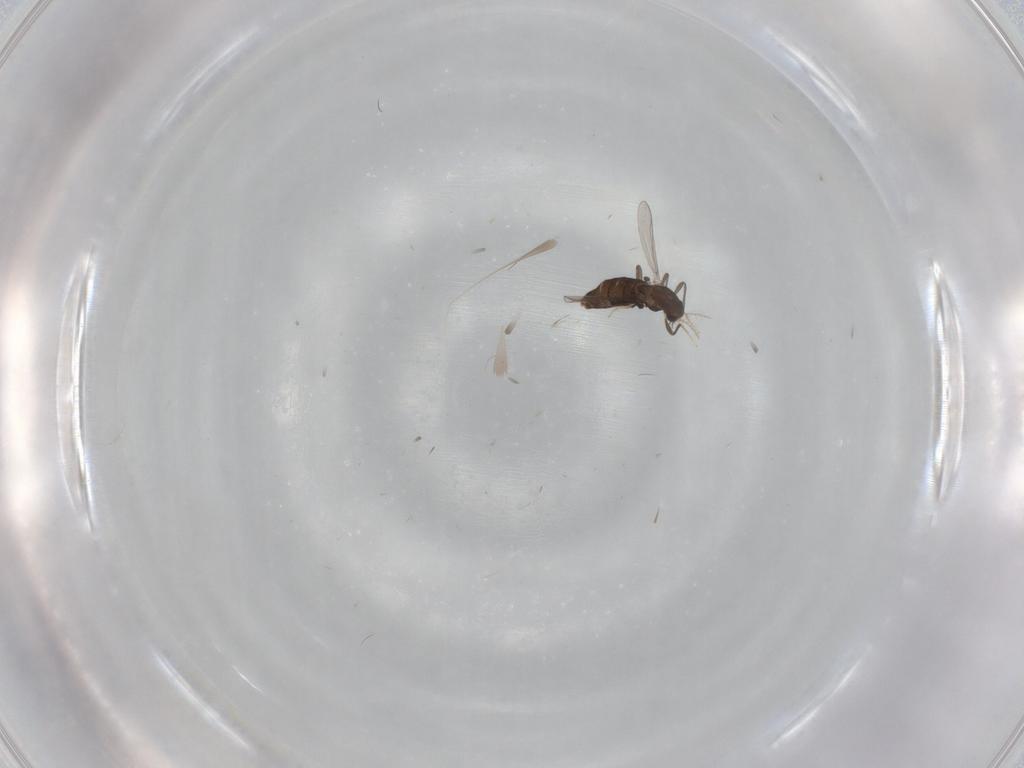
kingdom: Animalia
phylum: Arthropoda
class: Insecta
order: Diptera
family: Chironomidae
